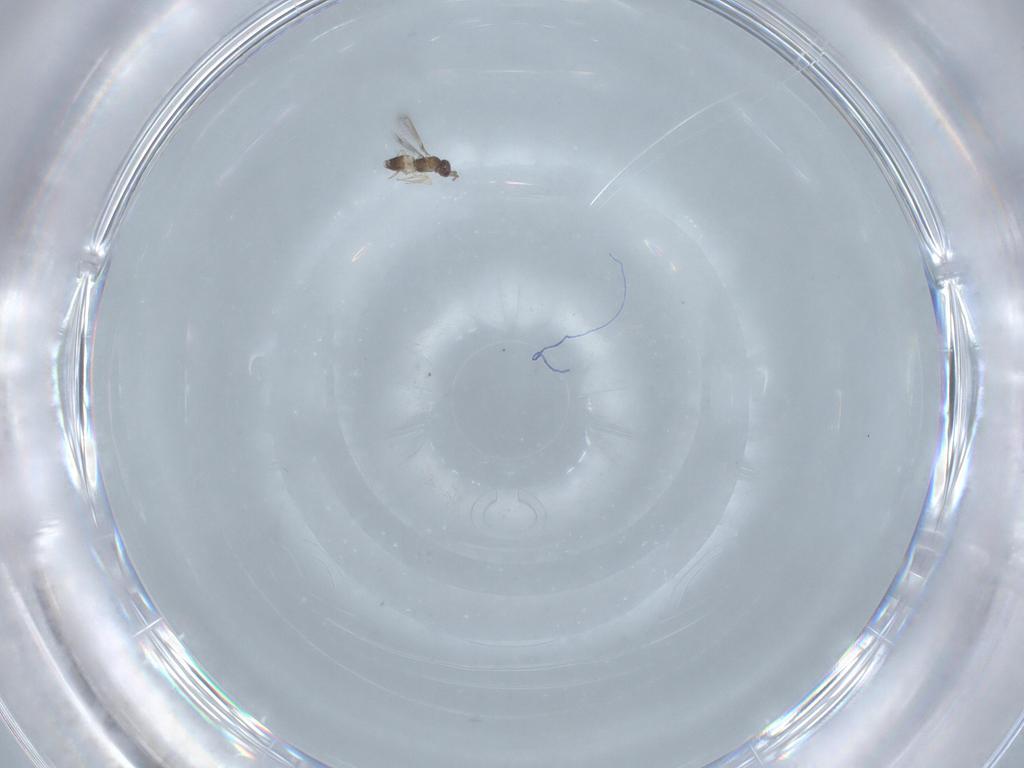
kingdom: Animalia
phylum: Arthropoda
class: Insecta
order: Hymenoptera
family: Mymaridae
